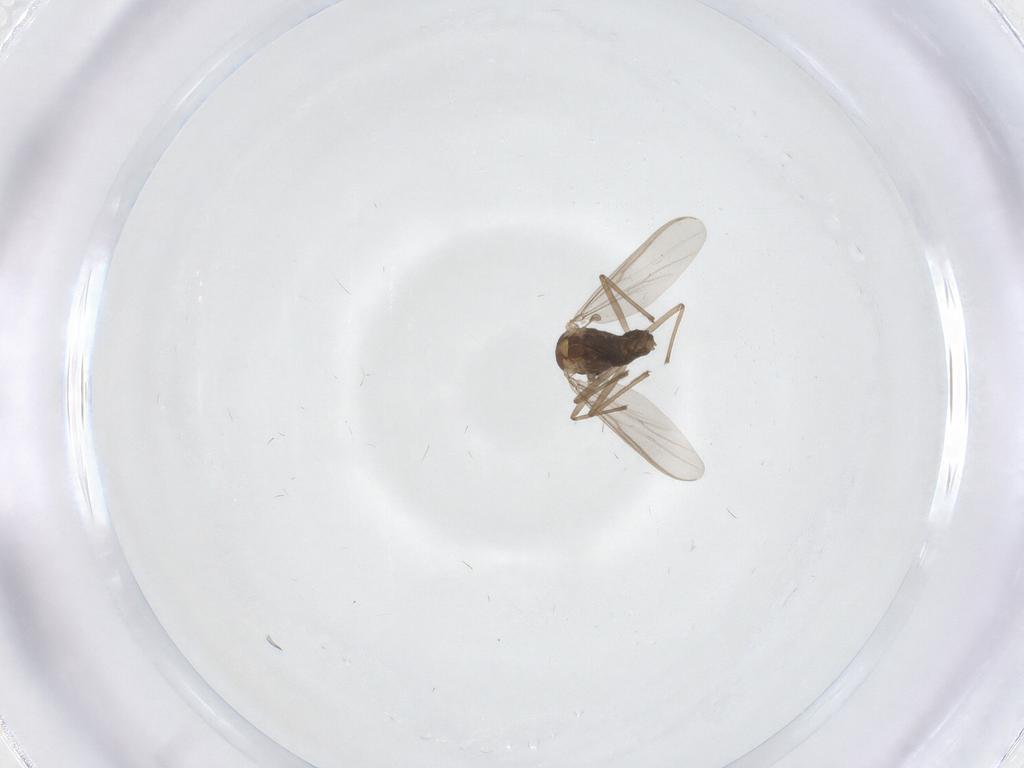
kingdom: Animalia
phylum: Arthropoda
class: Insecta
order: Diptera
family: Chironomidae
